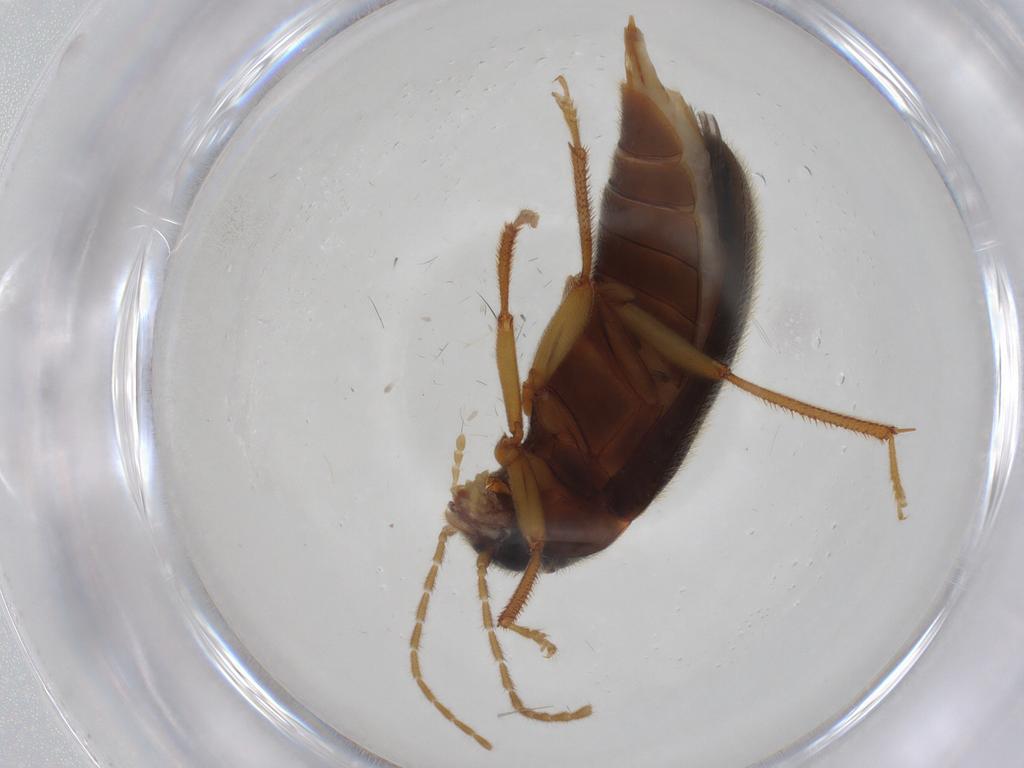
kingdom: Animalia
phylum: Arthropoda
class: Insecta
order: Coleoptera
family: Ptilodactylidae
